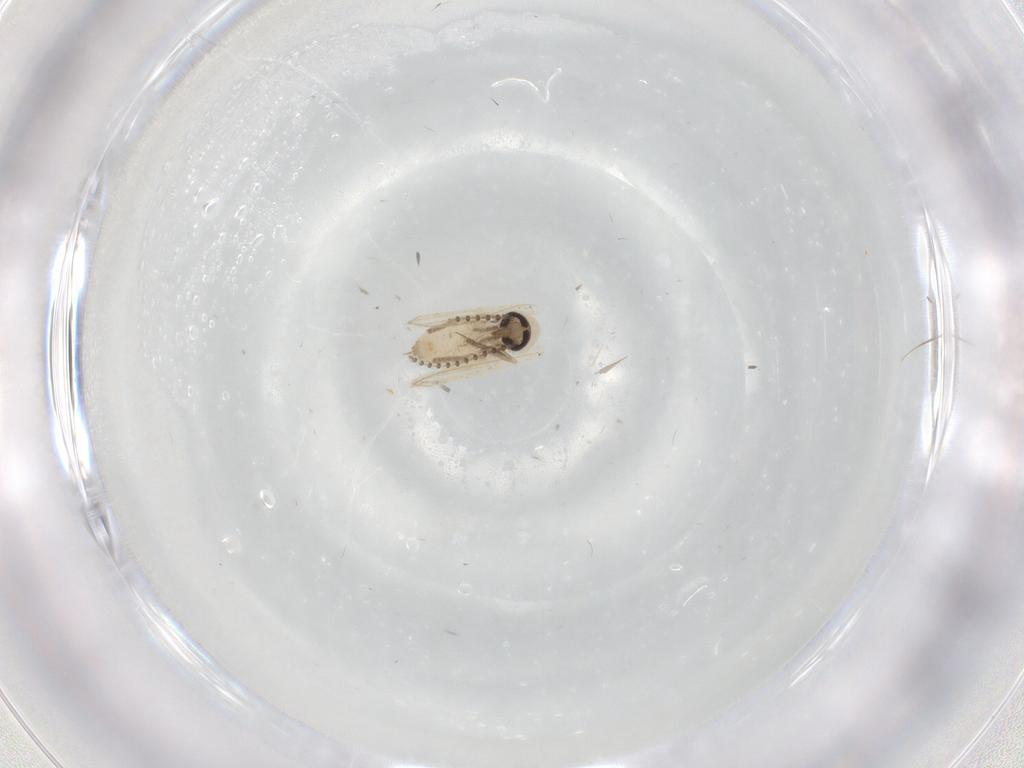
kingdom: Animalia
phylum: Arthropoda
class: Insecta
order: Diptera
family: Psychodidae
